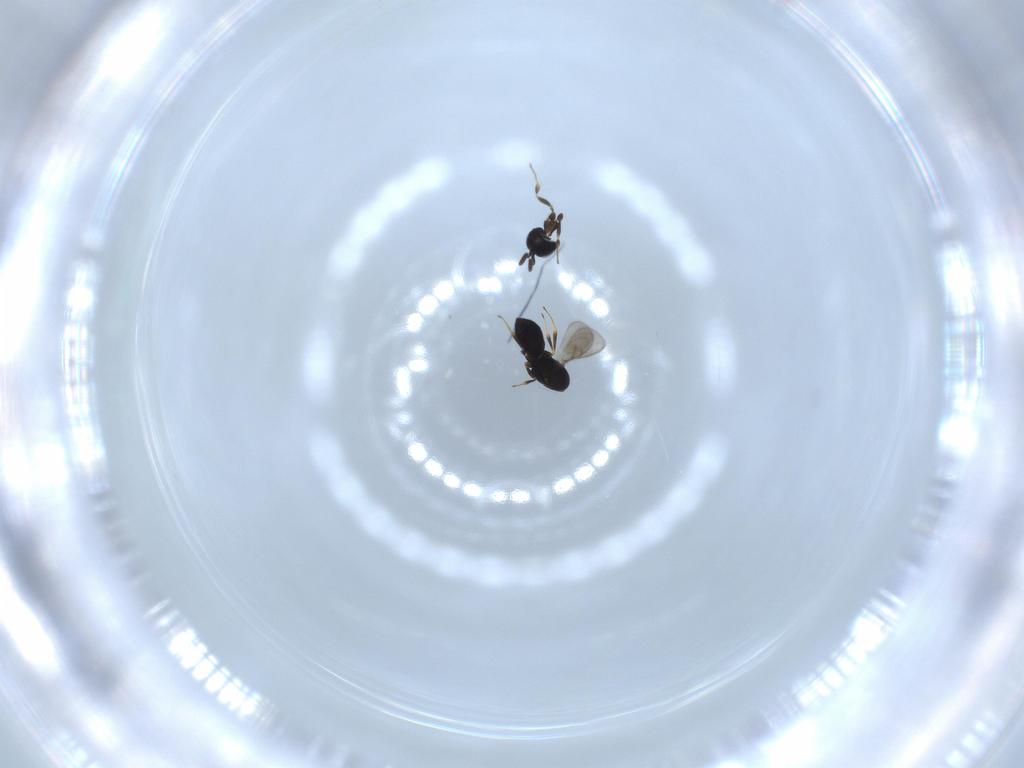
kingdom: Animalia
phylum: Arthropoda
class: Insecta
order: Hymenoptera
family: Scelionidae
